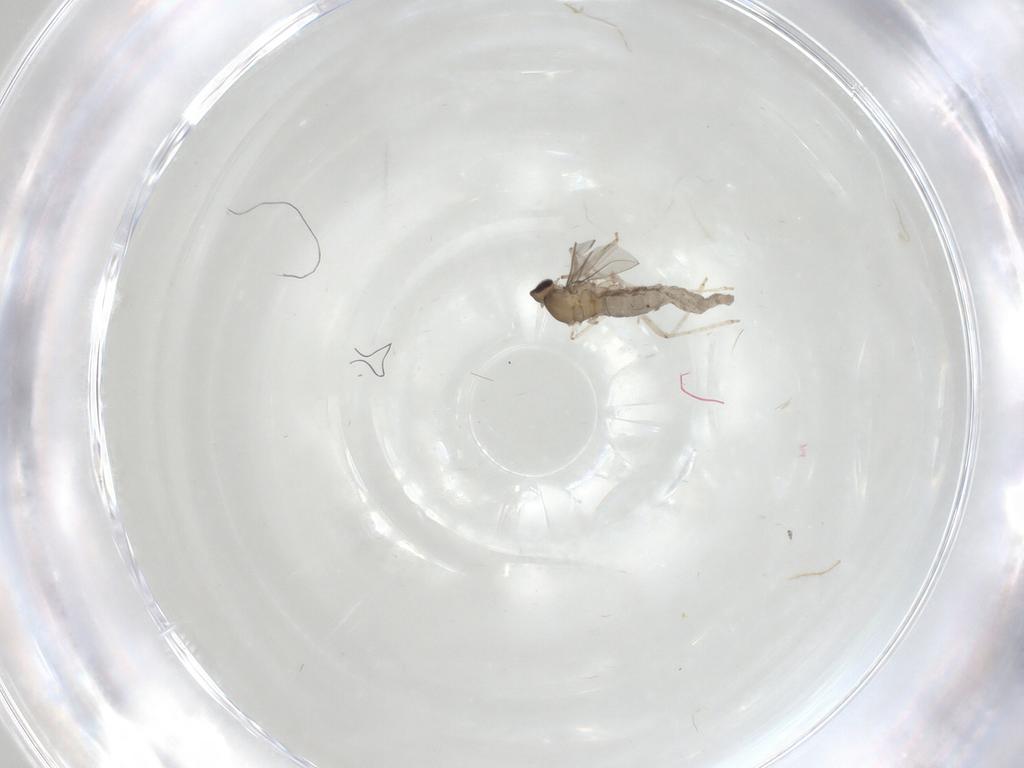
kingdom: Animalia
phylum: Arthropoda
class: Insecta
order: Diptera
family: Cecidomyiidae
